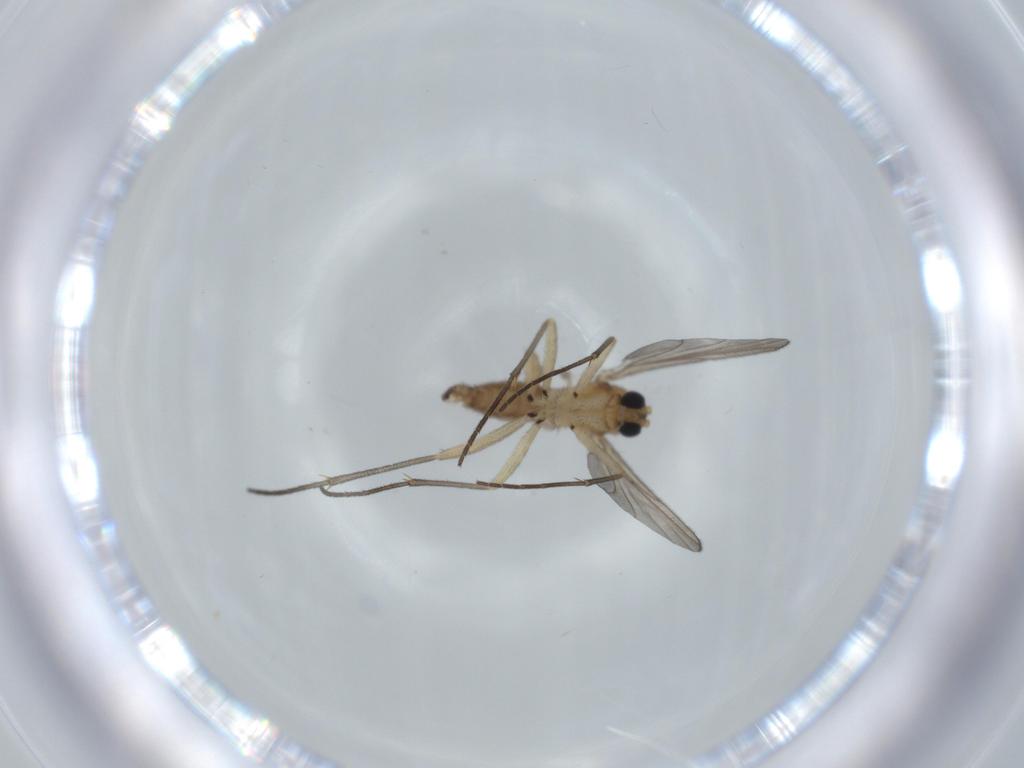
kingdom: Animalia
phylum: Arthropoda
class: Insecta
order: Diptera
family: Sciaridae
